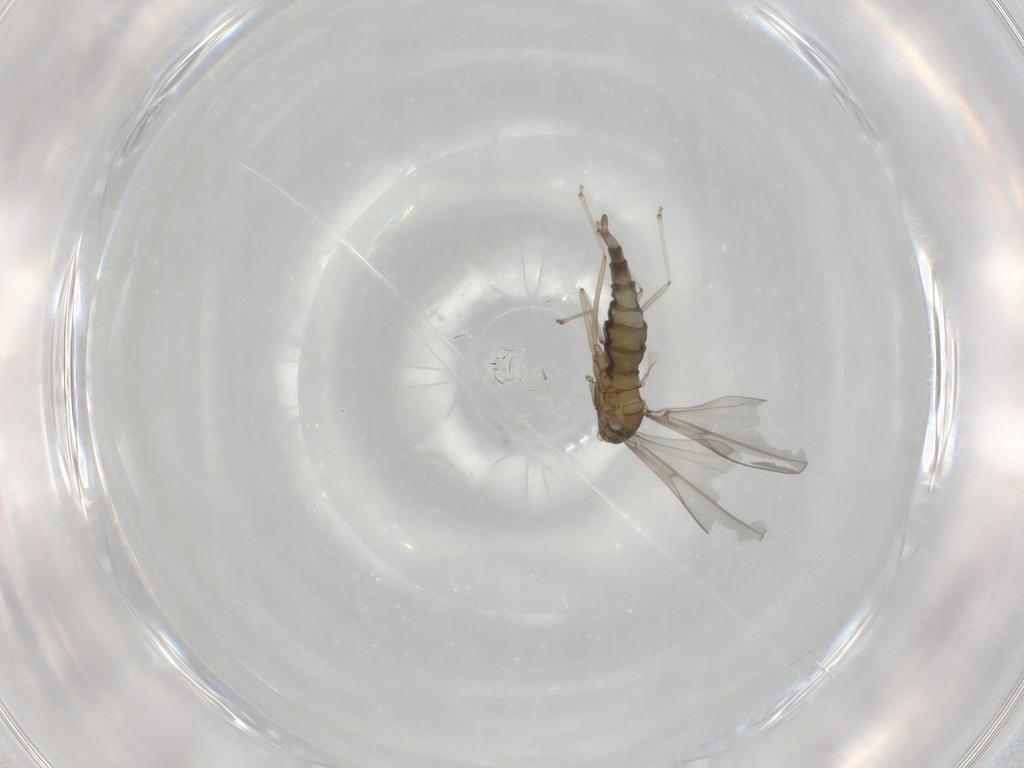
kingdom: Animalia
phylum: Arthropoda
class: Insecta
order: Diptera
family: Cecidomyiidae
